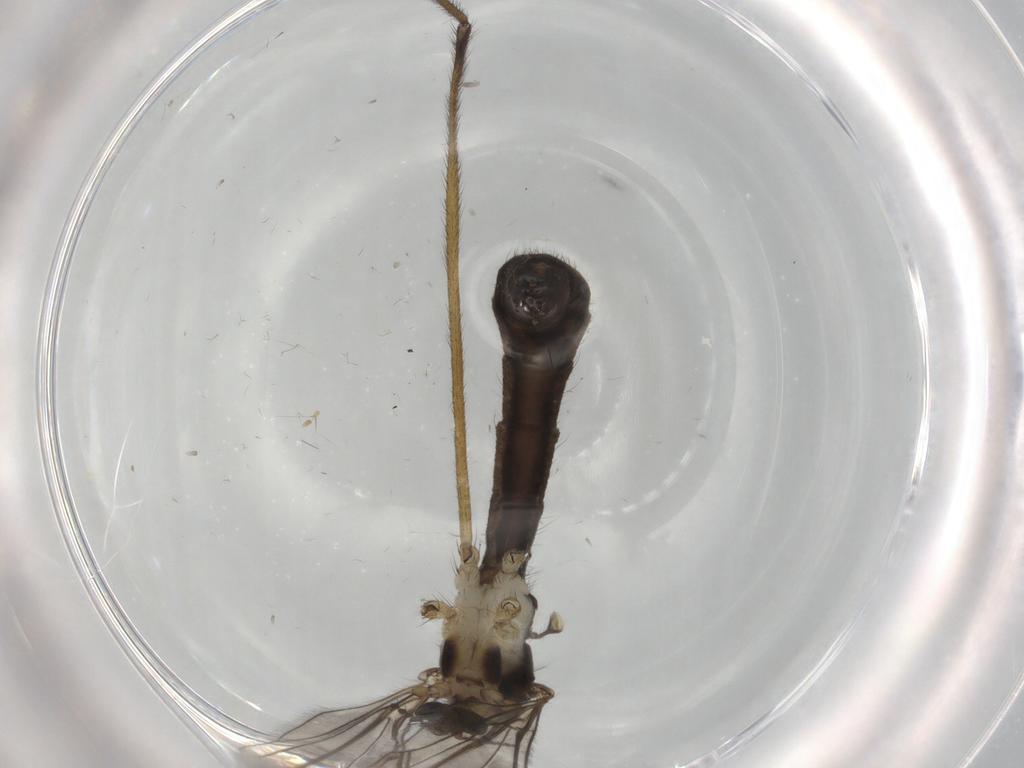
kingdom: Animalia
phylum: Arthropoda
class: Insecta
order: Diptera
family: Limoniidae
